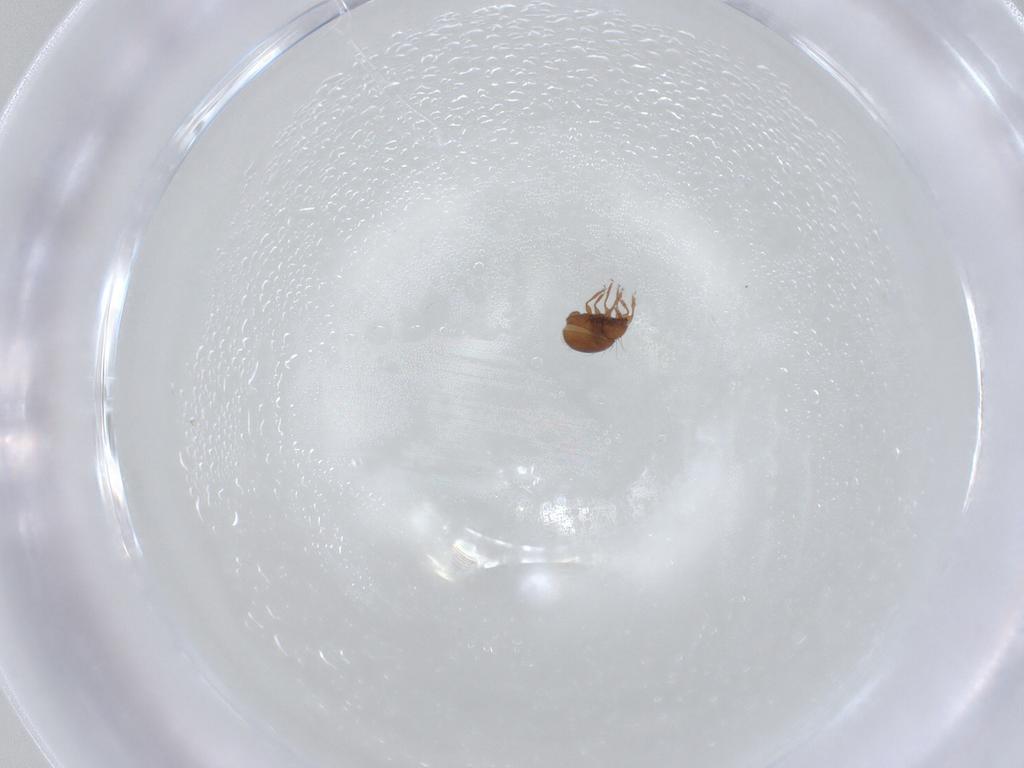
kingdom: Animalia
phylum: Arthropoda
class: Arachnida
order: Sarcoptiformes
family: Oribatulidae
